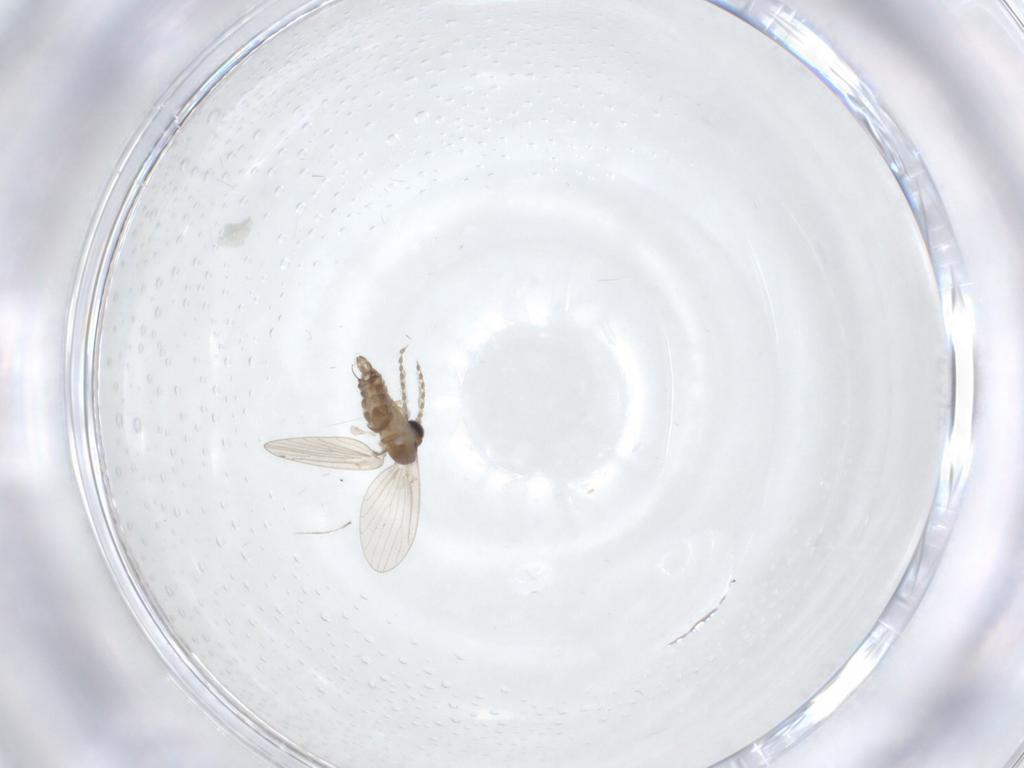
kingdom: Animalia
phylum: Arthropoda
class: Insecta
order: Diptera
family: Cecidomyiidae
